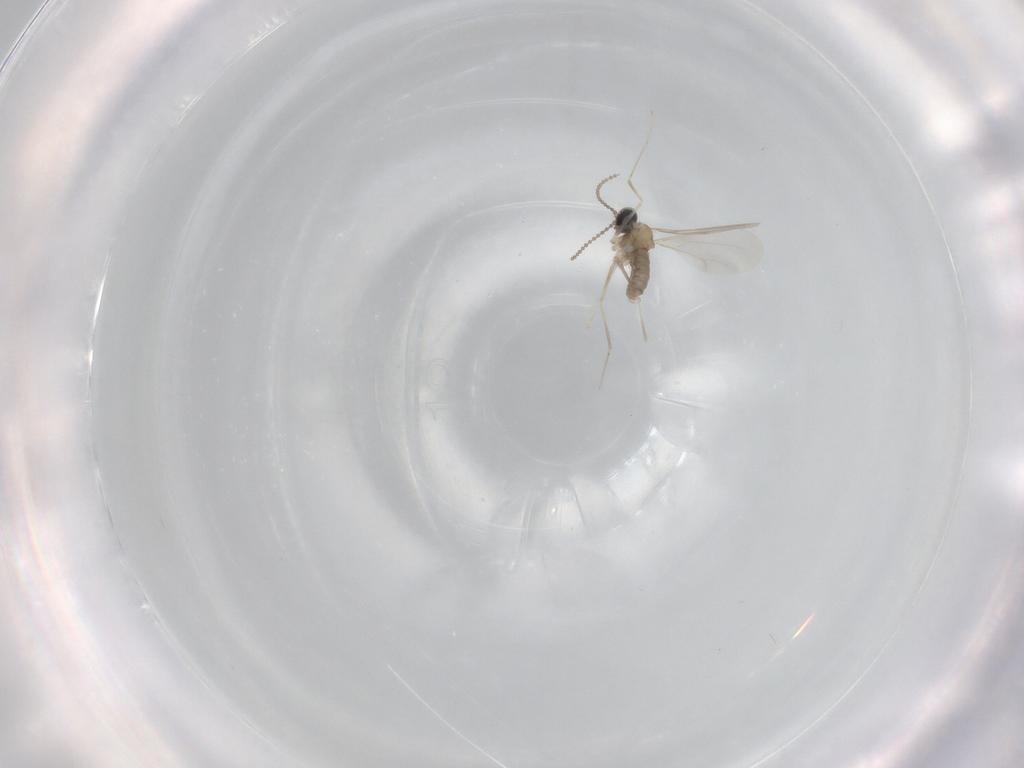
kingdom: Animalia
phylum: Arthropoda
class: Insecta
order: Diptera
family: Cecidomyiidae
